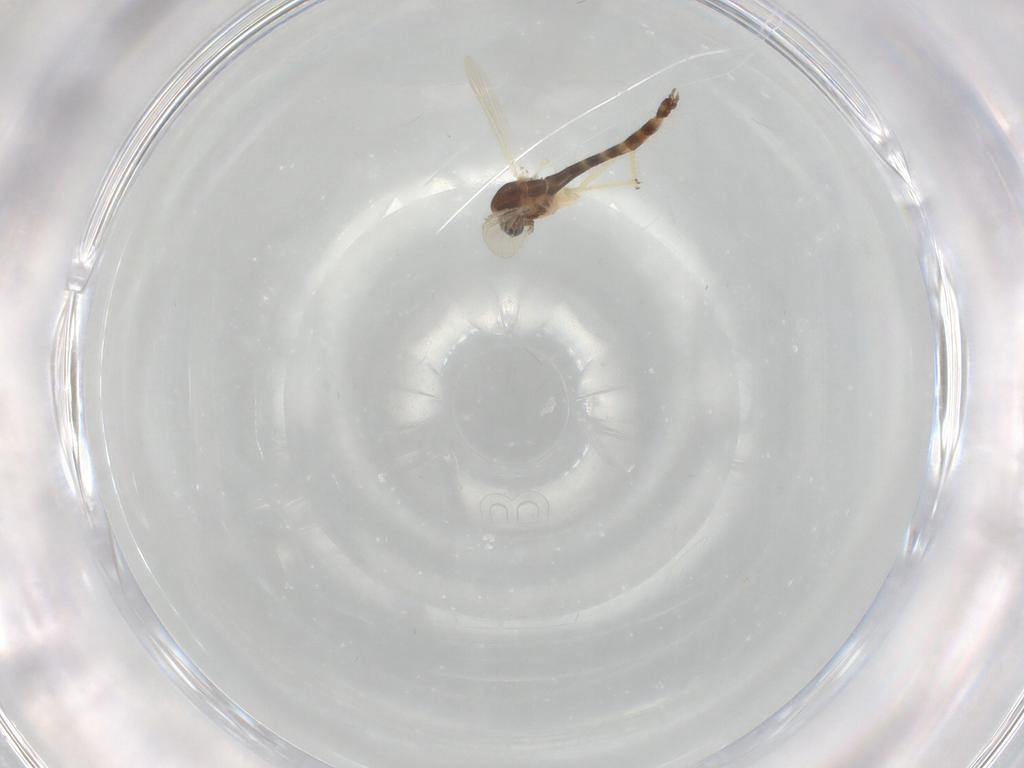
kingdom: Animalia
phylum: Arthropoda
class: Insecta
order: Diptera
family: Chironomidae
